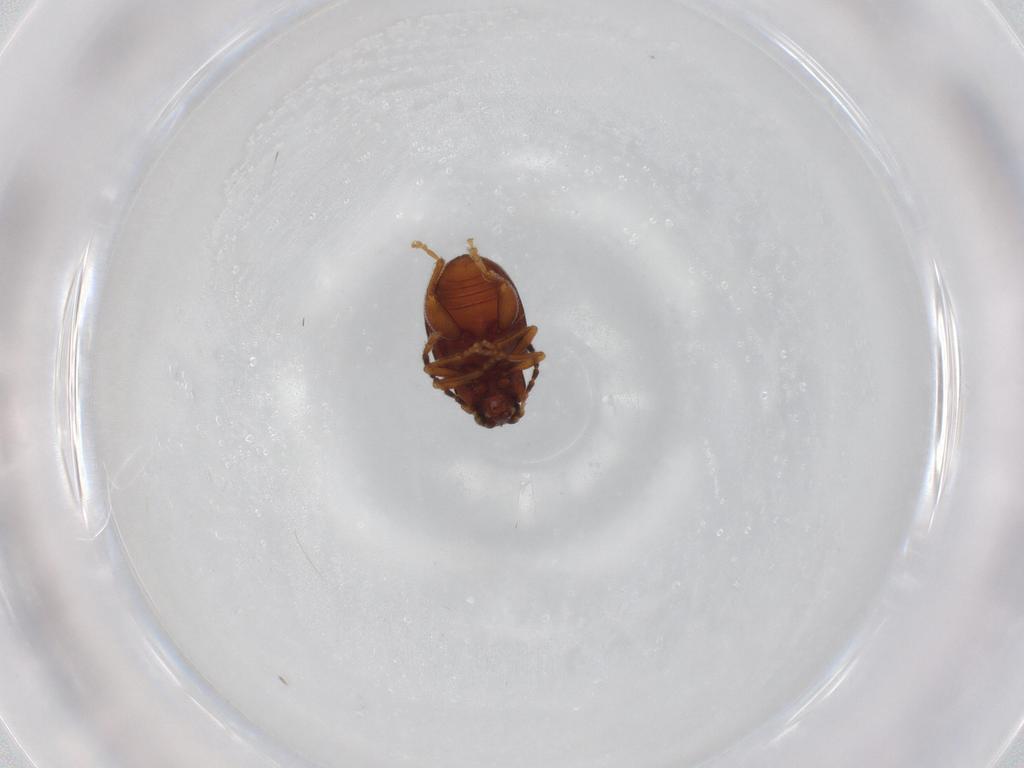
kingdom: Animalia
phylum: Arthropoda
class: Insecta
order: Coleoptera
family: Chrysomelidae
